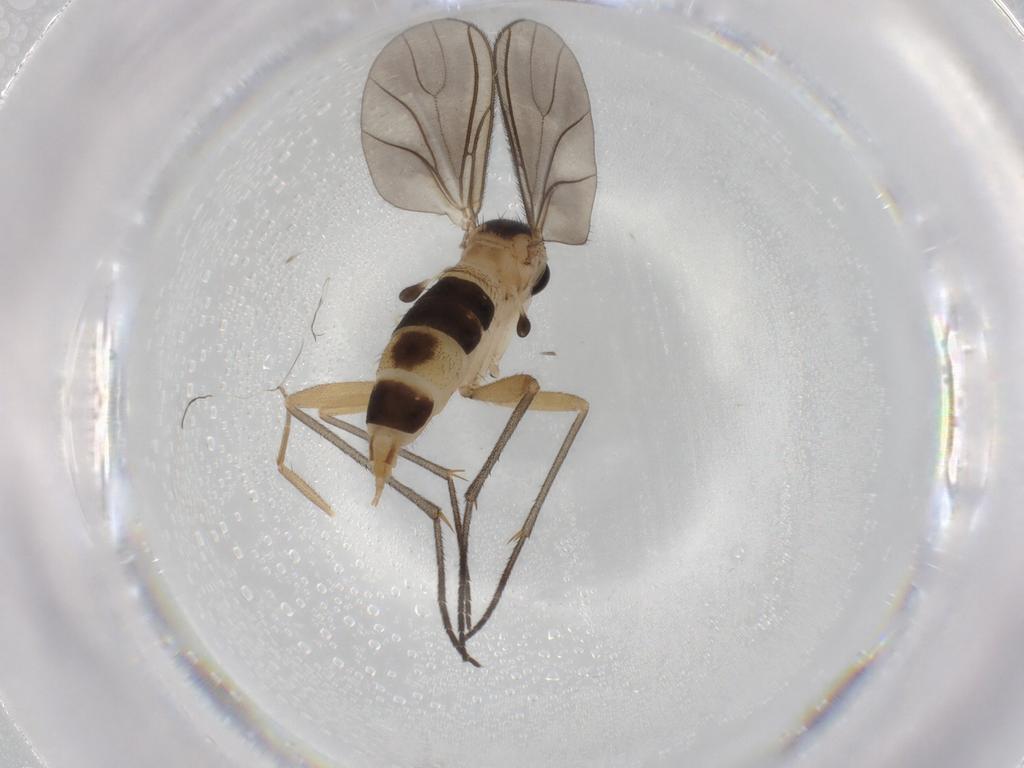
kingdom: Animalia
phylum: Arthropoda
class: Insecta
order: Diptera
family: Sciaridae
